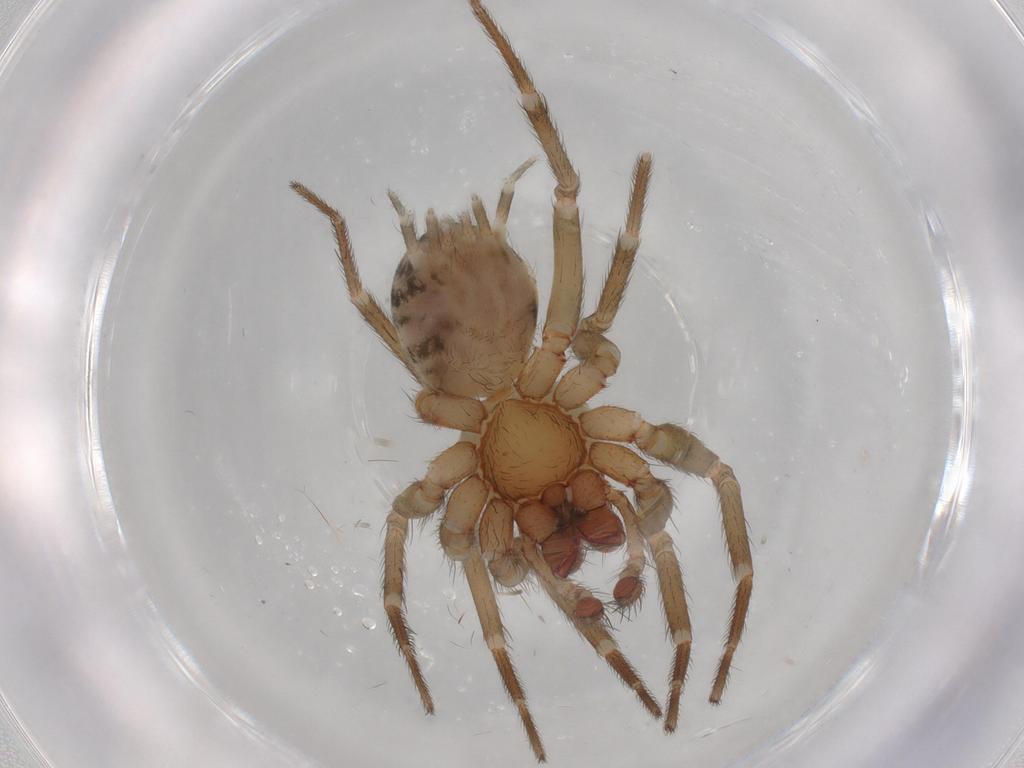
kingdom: Animalia
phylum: Arthropoda
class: Arachnida
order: Araneae
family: Hahniidae
